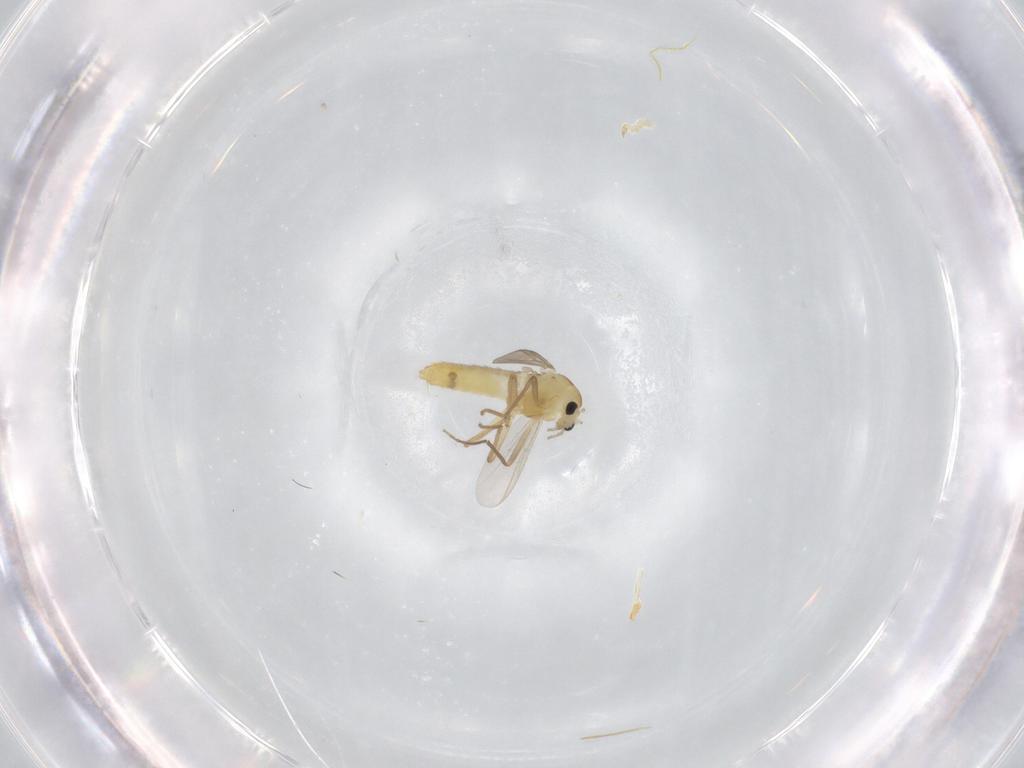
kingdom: Animalia
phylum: Arthropoda
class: Insecta
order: Diptera
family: Chironomidae
